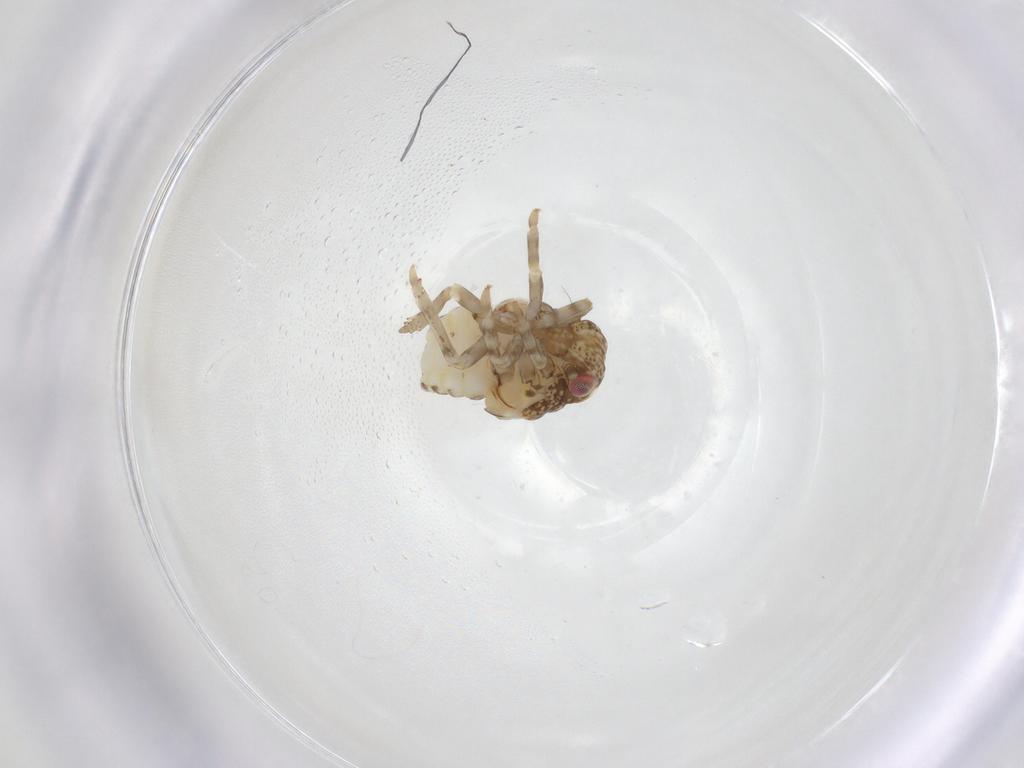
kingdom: Animalia
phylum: Arthropoda
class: Insecta
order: Hemiptera
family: Acanaloniidae
